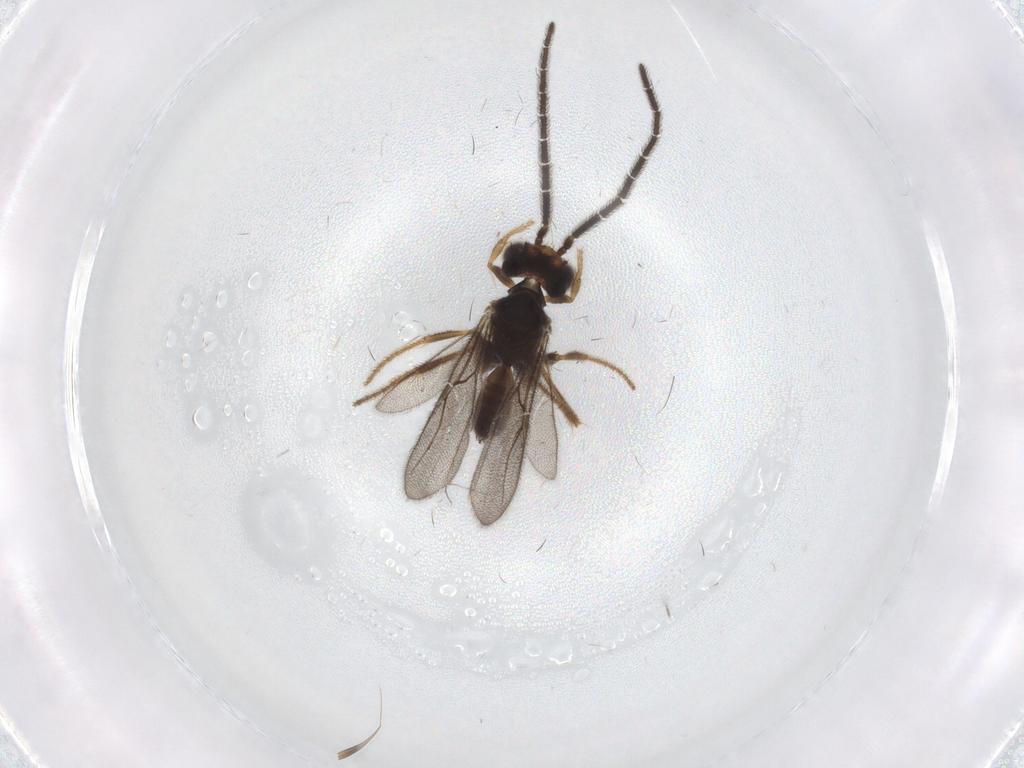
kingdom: Animalia
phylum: Arthropoda
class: Insecta
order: Hymenoptera
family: Dryinidae
